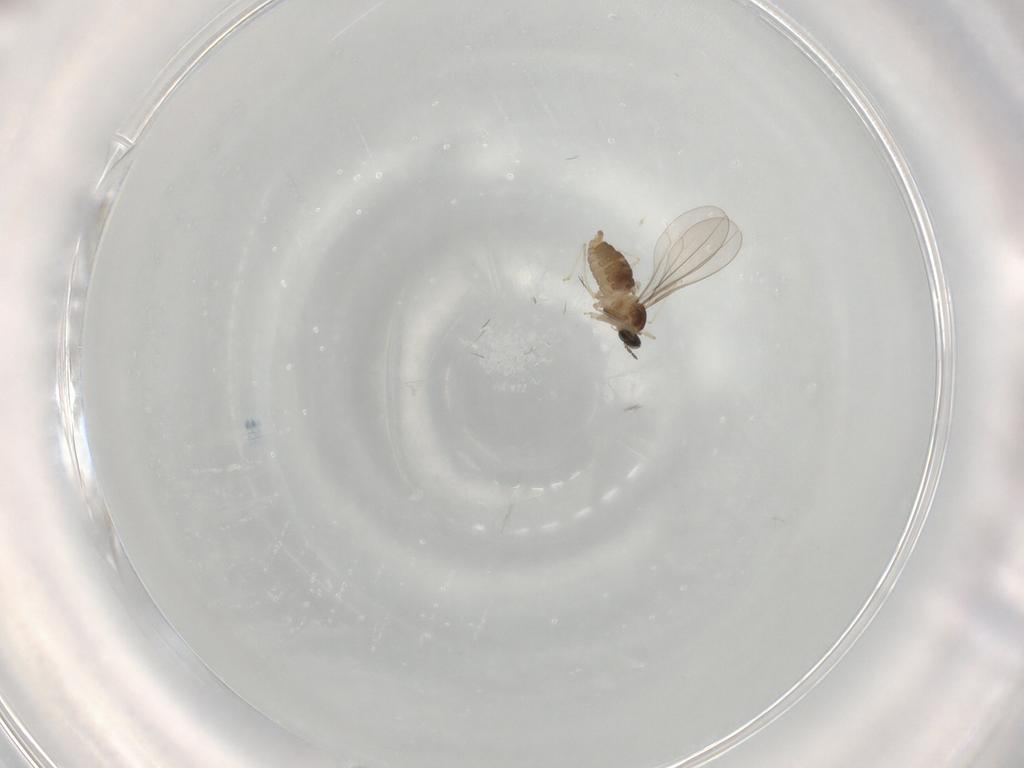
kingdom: Animalia
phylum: Arthropoda
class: Insecta
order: Diptera
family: Cecidomyiidae
